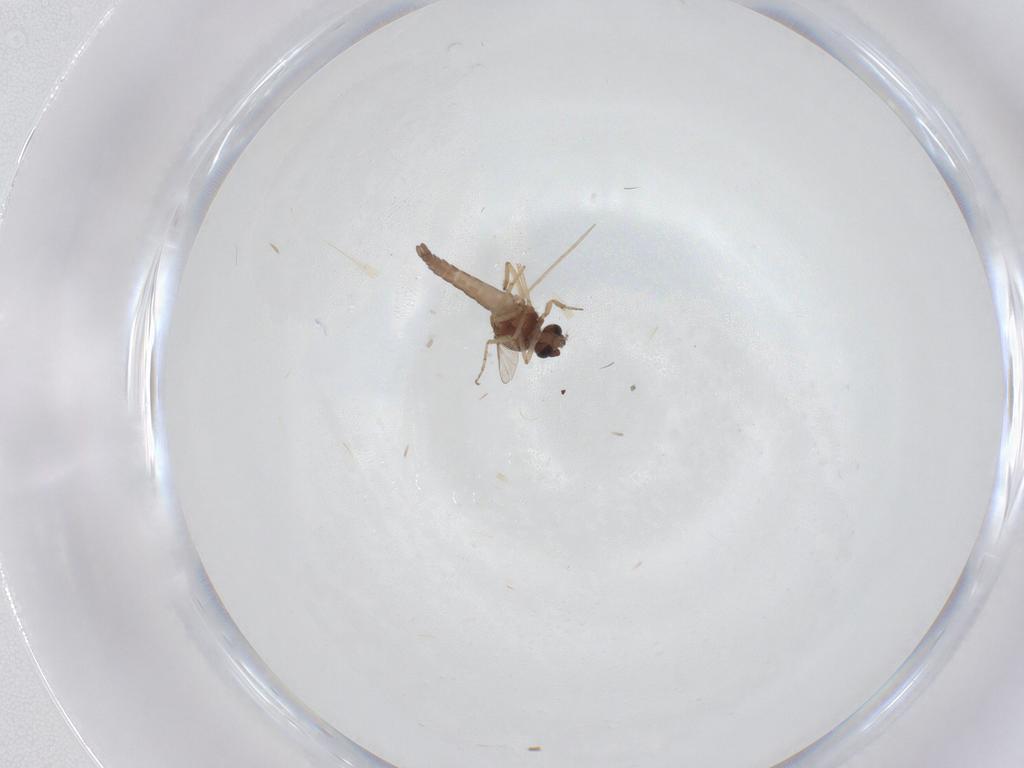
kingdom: Animalia
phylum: Arthropoda
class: Insecta
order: Diptera
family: Ceratopogonidae
